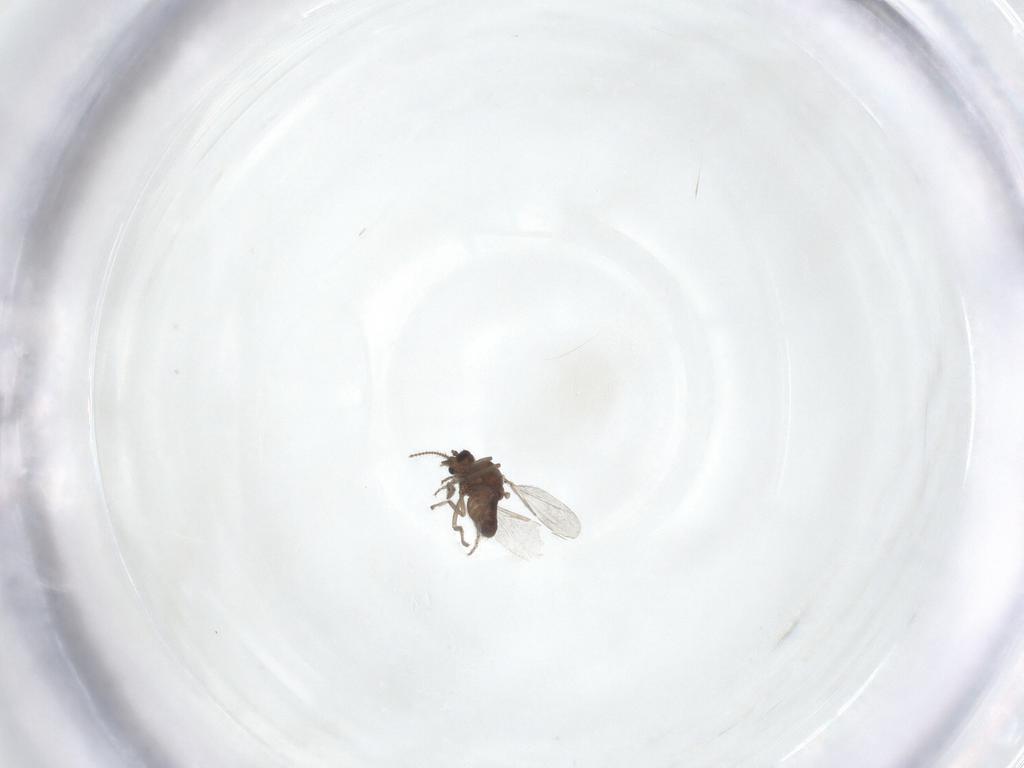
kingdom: Animalia
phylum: Arthropoda
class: Insecta
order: Diptera
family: Ceratopogonidae
